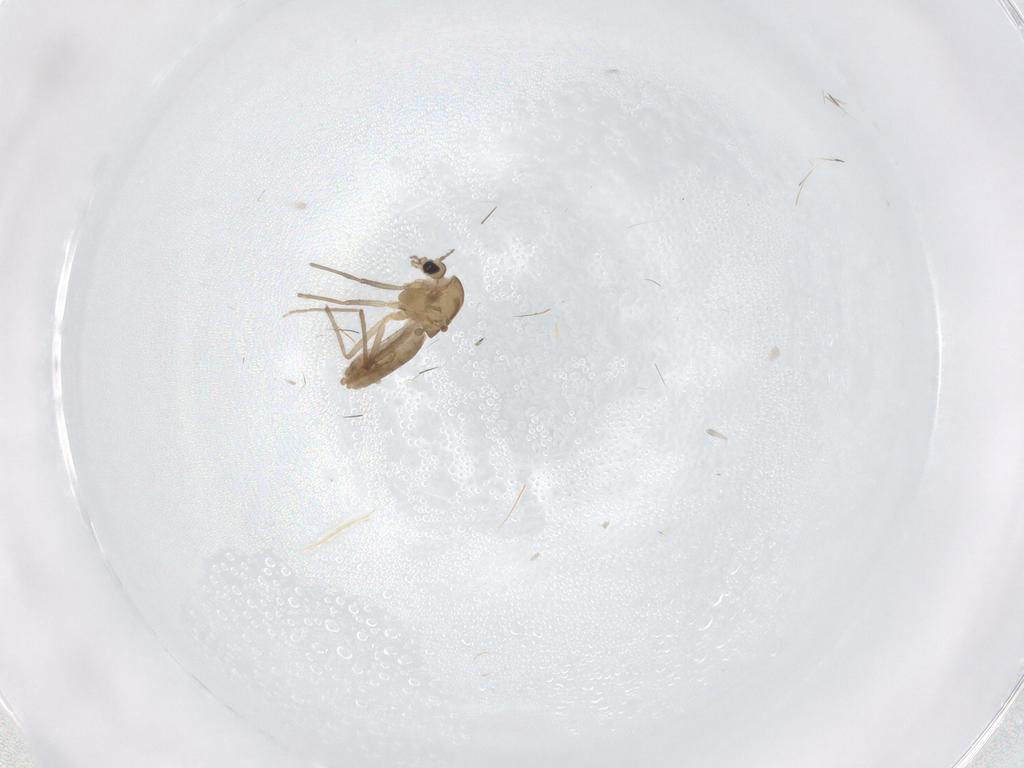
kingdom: Animalia
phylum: Arthropoda
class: Insecta
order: Diptera
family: Chironomidae
